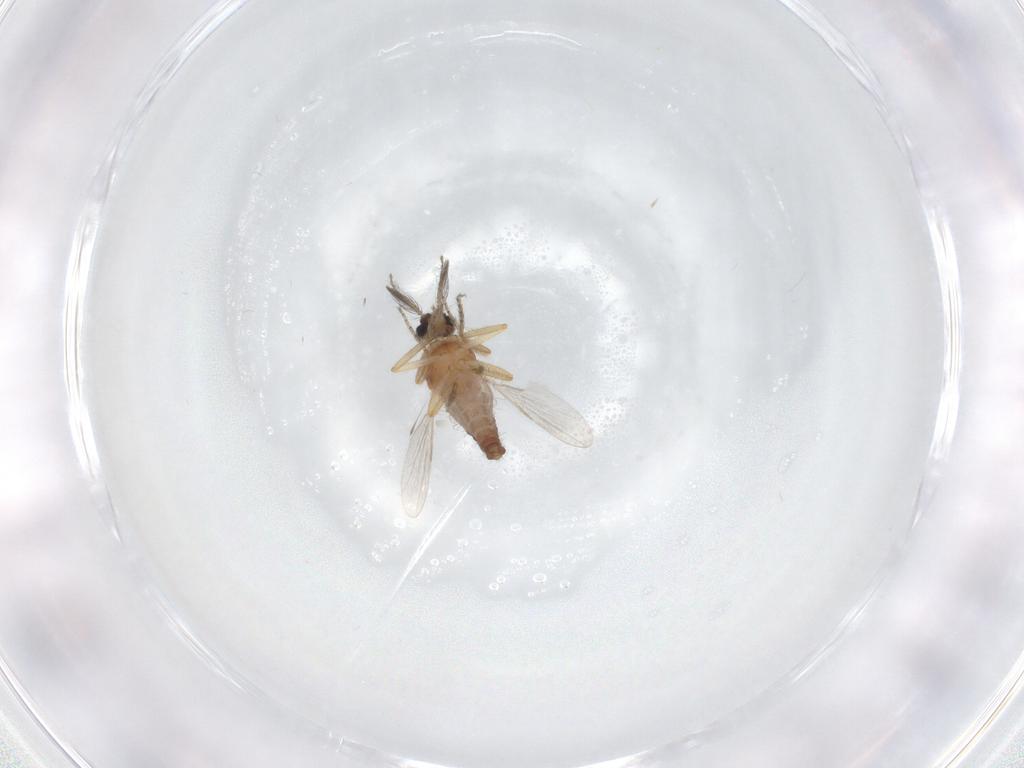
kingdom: Animalia
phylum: Arthropoda
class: Insecta
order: Diptera
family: Ceratopogonidae
